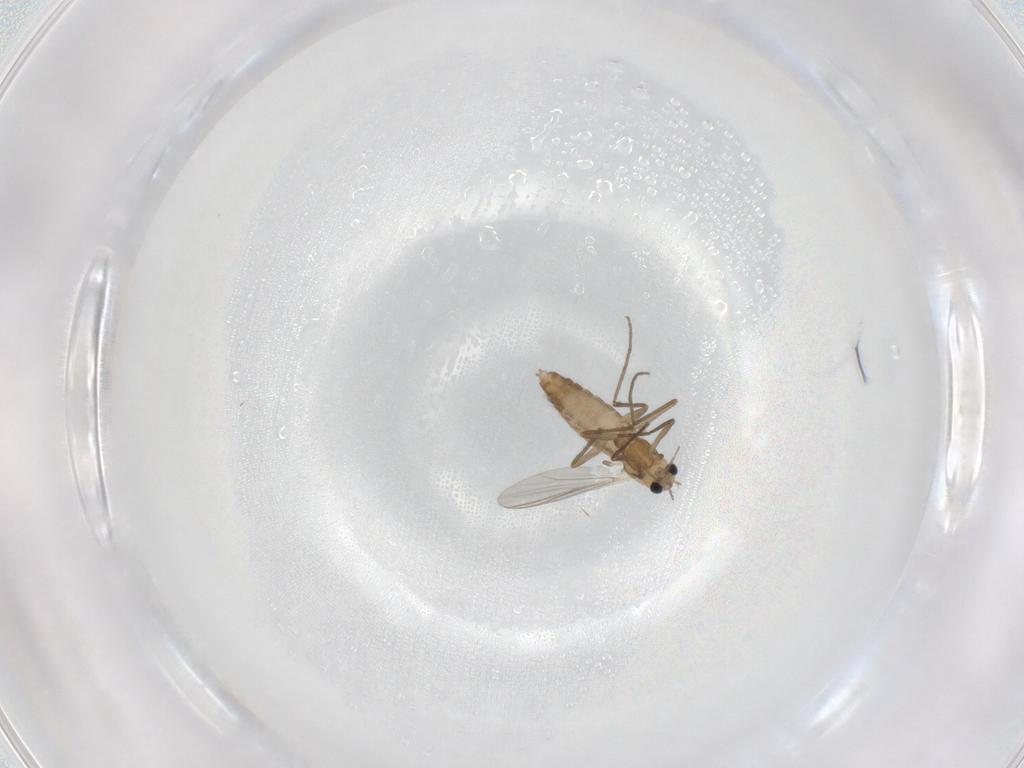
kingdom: Animalia
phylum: Arthropoda
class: Insecta
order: Diptera
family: Chironomidae
